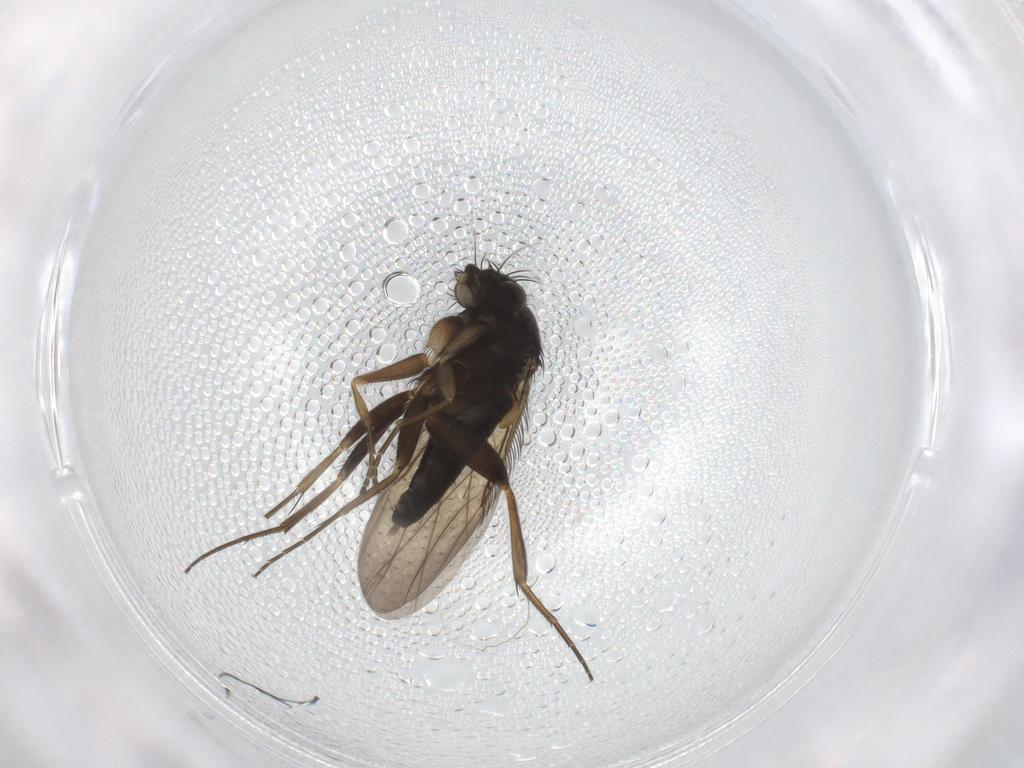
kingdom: Animalia
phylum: Arthropoda
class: Insecta
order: Diptera
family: Phoridae
